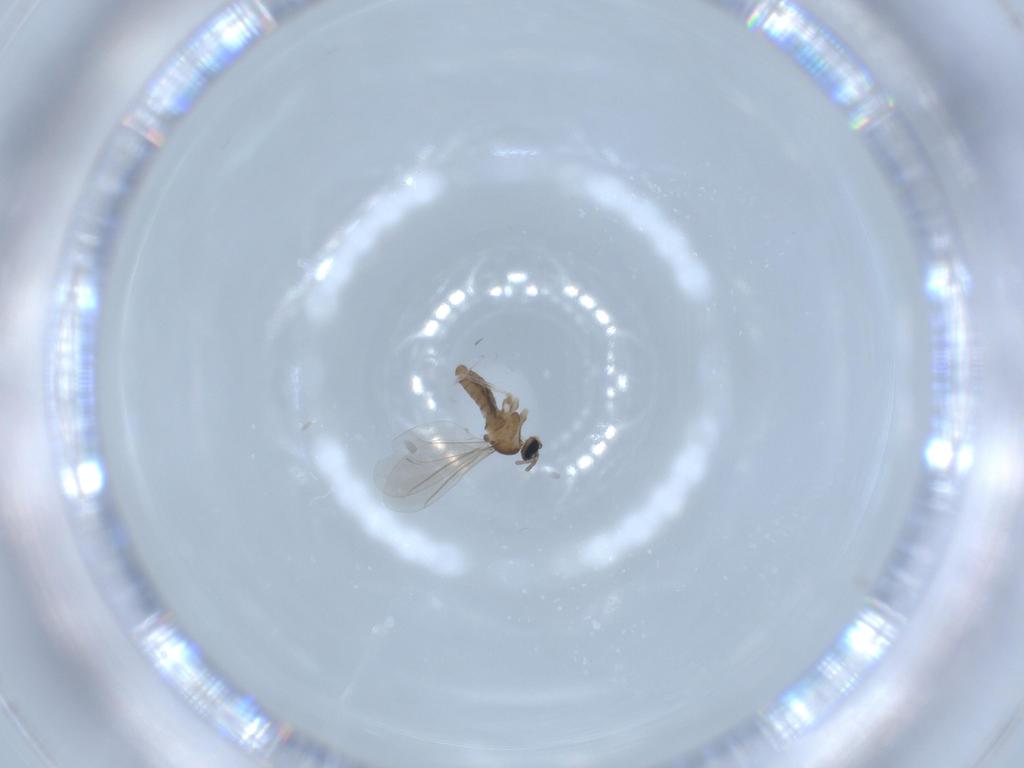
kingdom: Animalia
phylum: Arthropoda
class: Insecta
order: Diptera
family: Cecidomyiidae
